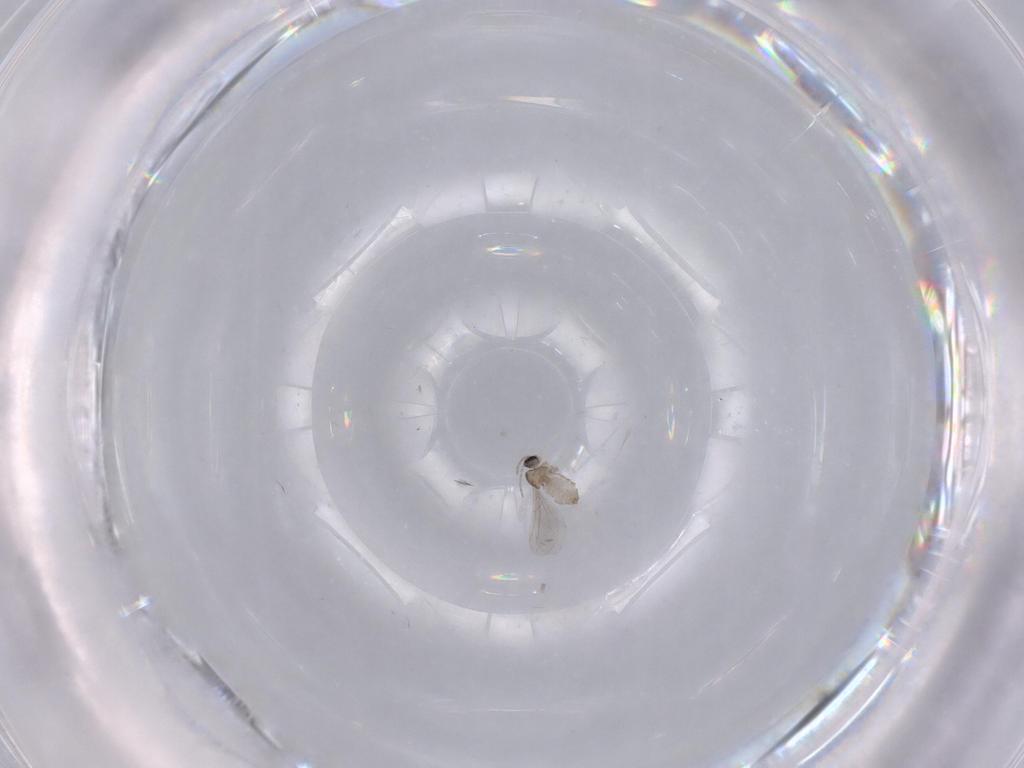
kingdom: Animalia
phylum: Arthropoda
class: Insecta
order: Diptera
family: Cecidomyiidae
